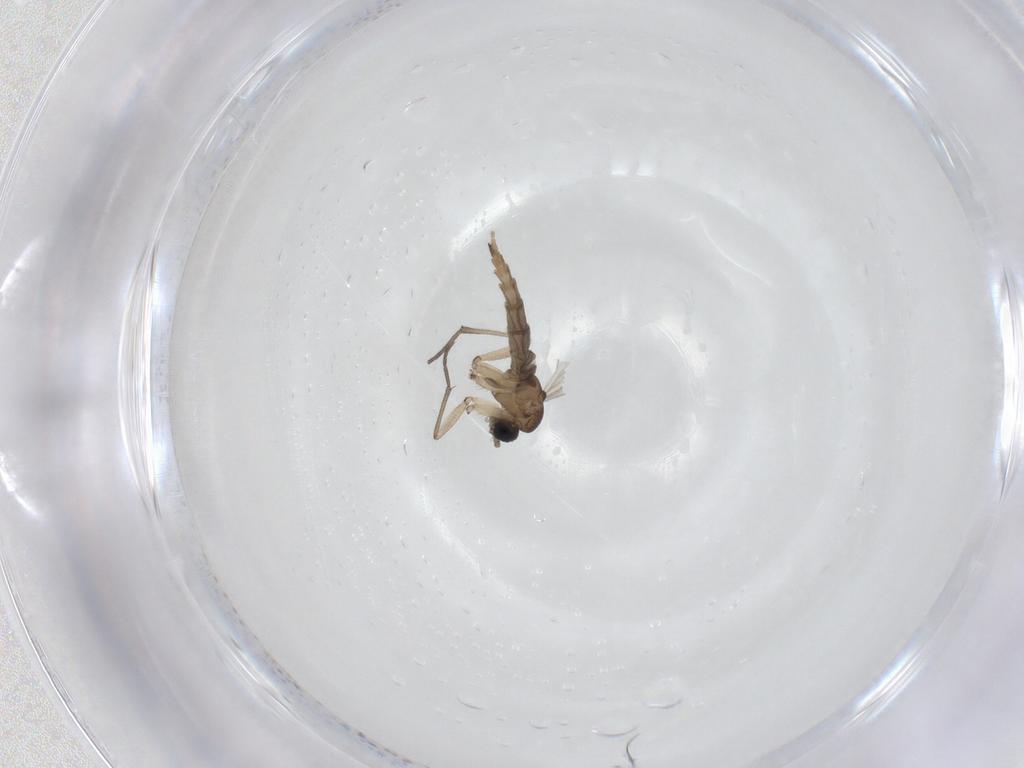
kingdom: Animalia
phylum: Arthropoda
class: Insecta
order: Diptera
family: Sciaridae
